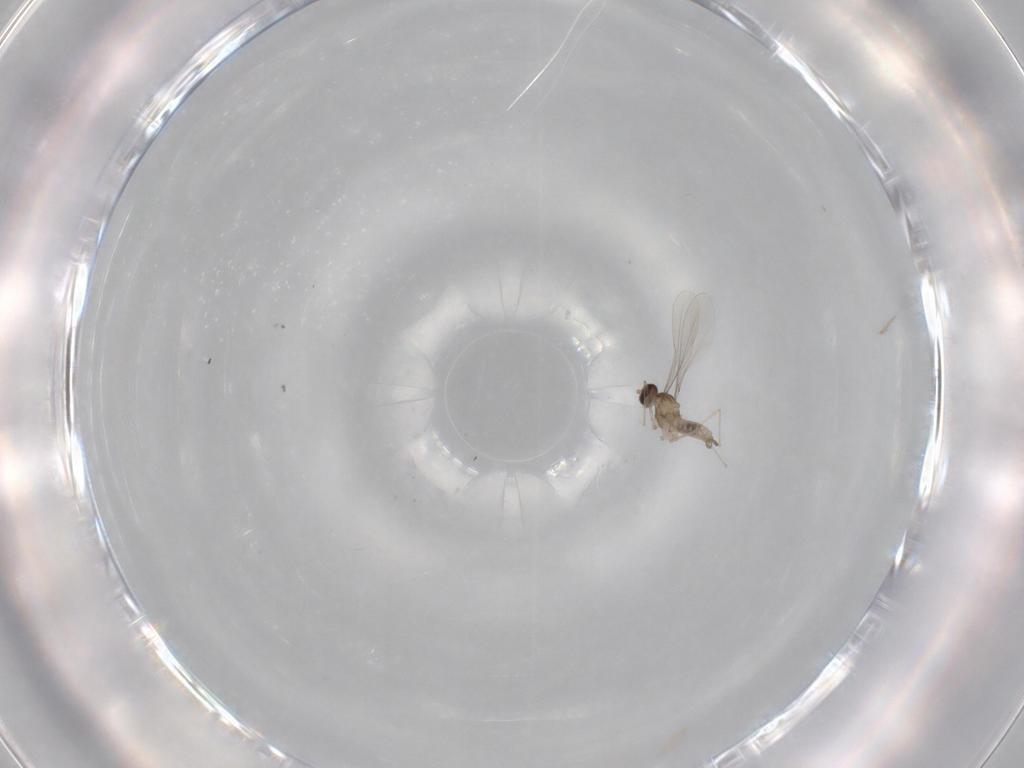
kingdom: Animalia
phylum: Arthropoda
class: Insecta
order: Diptera
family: Cecidomyiidae
